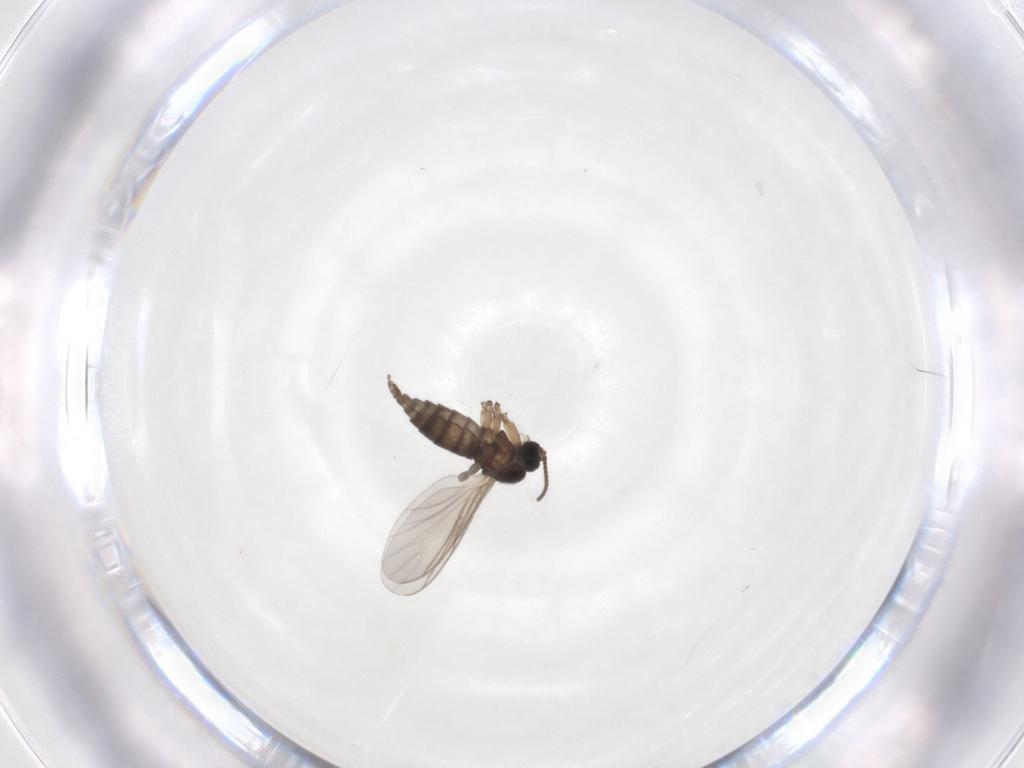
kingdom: Animalia
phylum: Arthropoda
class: Insecta
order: Diptera
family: Sciaridae
